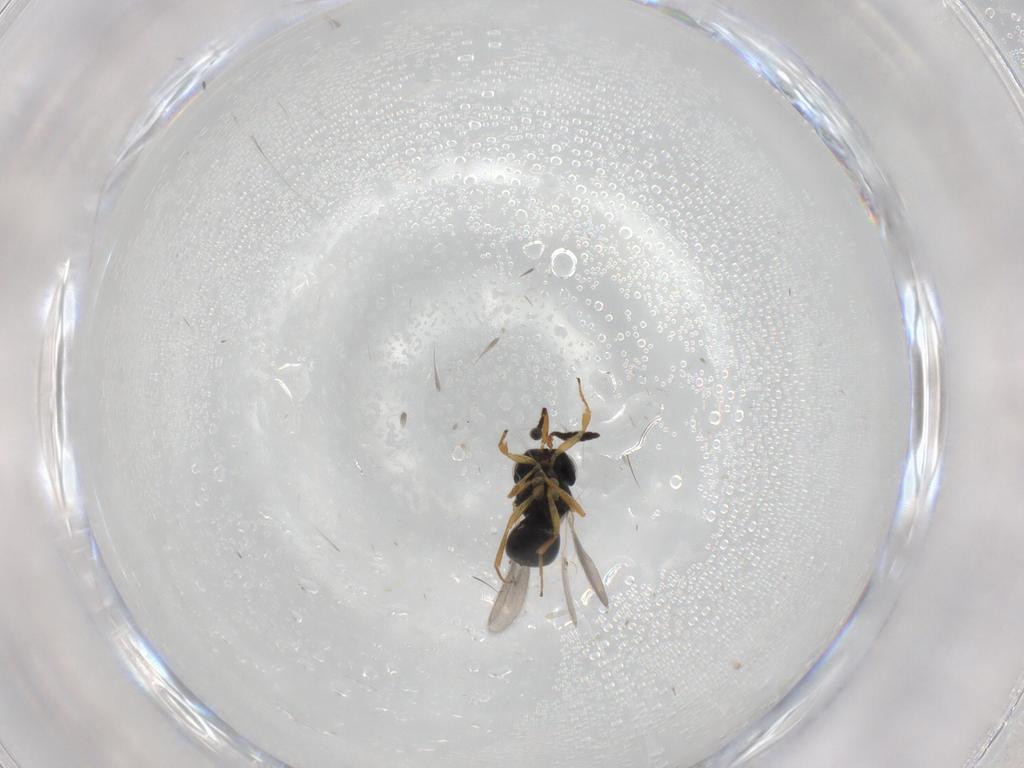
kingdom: Animalia
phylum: Arthropoda
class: Insecta
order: Hymenoptera
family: Scelionidae
